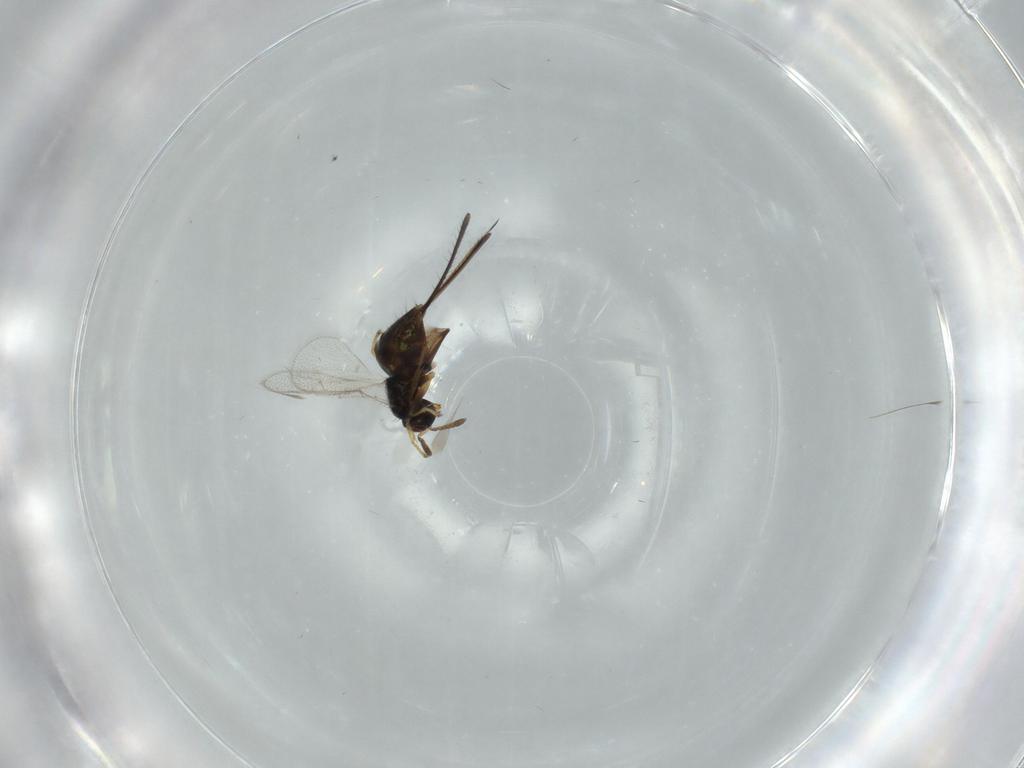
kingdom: Animalia
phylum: Arthropoda
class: Insecta
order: Hymenoptera
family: Torymidae
